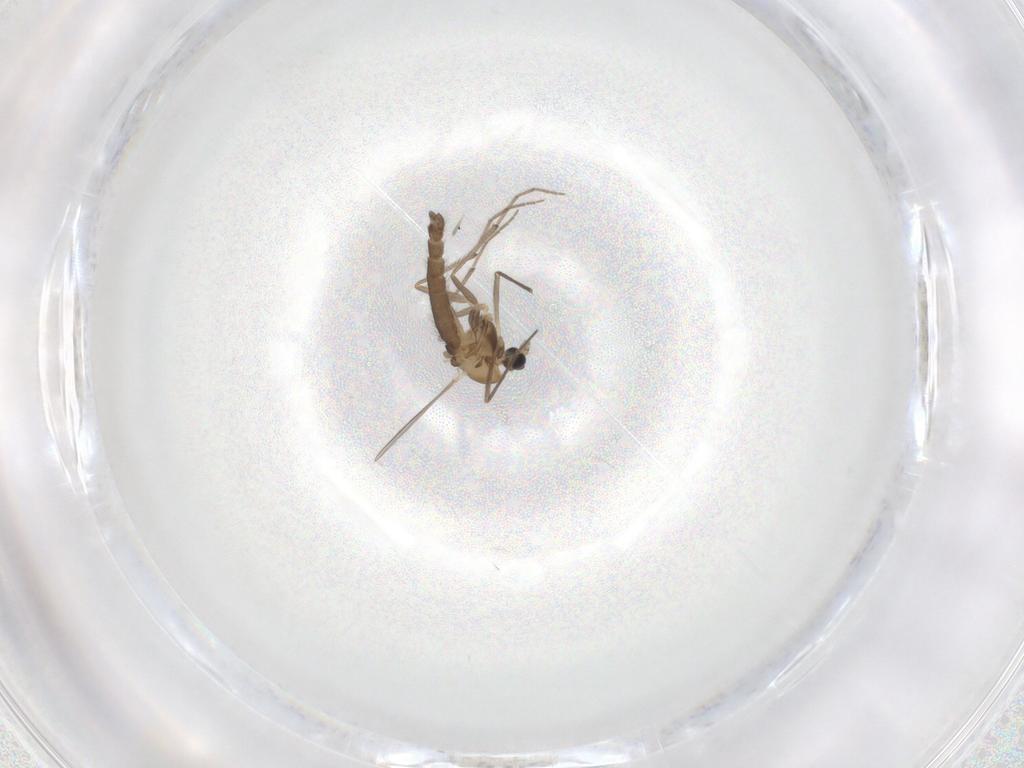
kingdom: Animalia
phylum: Arthropoda
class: Insecta
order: Diptera
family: Chironomidae
